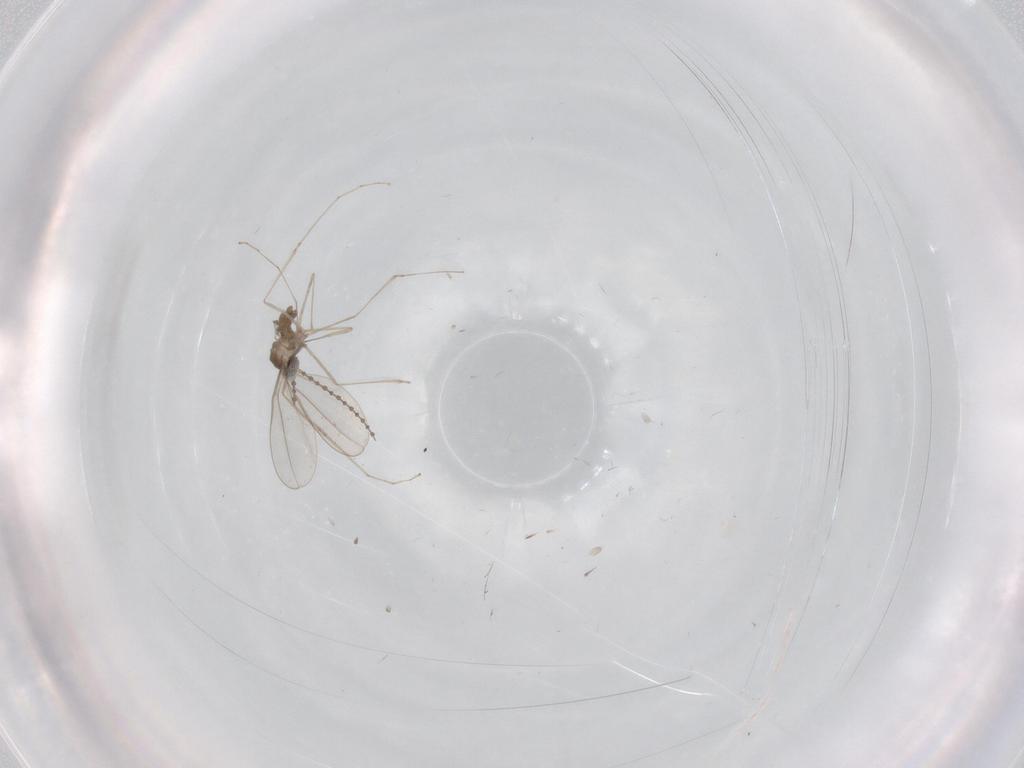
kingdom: Animalia
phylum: Arthropoda
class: Insecta
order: Diptera
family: Cecidomyiidae
